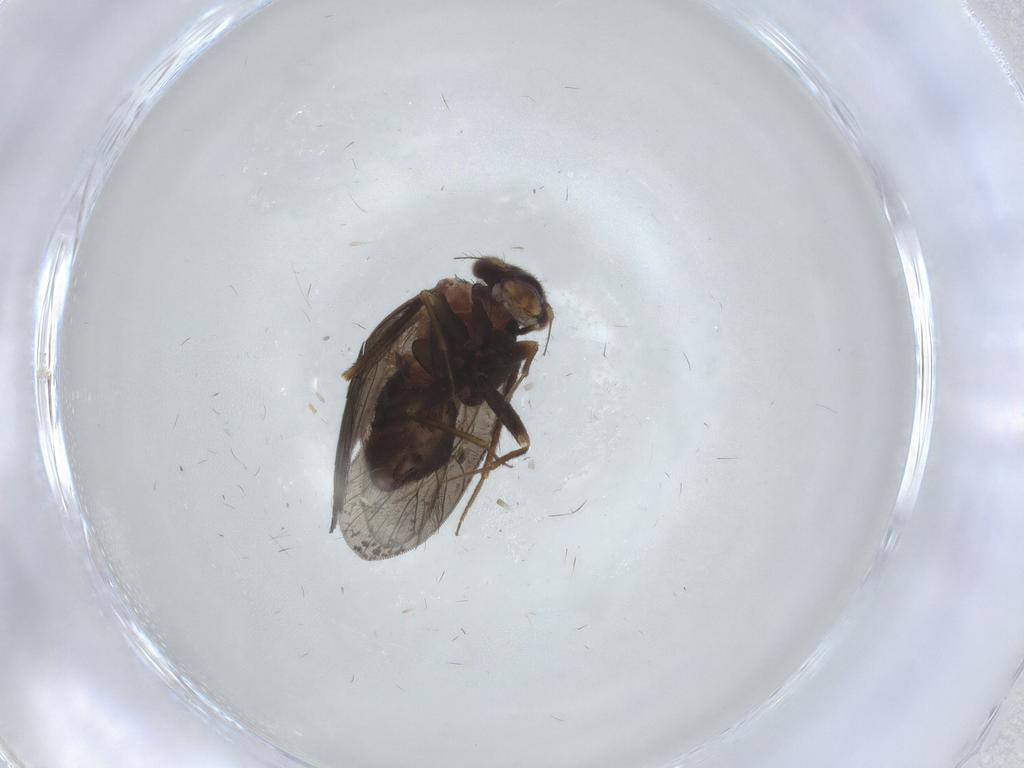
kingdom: Animalia
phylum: Arthropoda
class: Insecta
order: Psocodea
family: Lepidopsocidae
